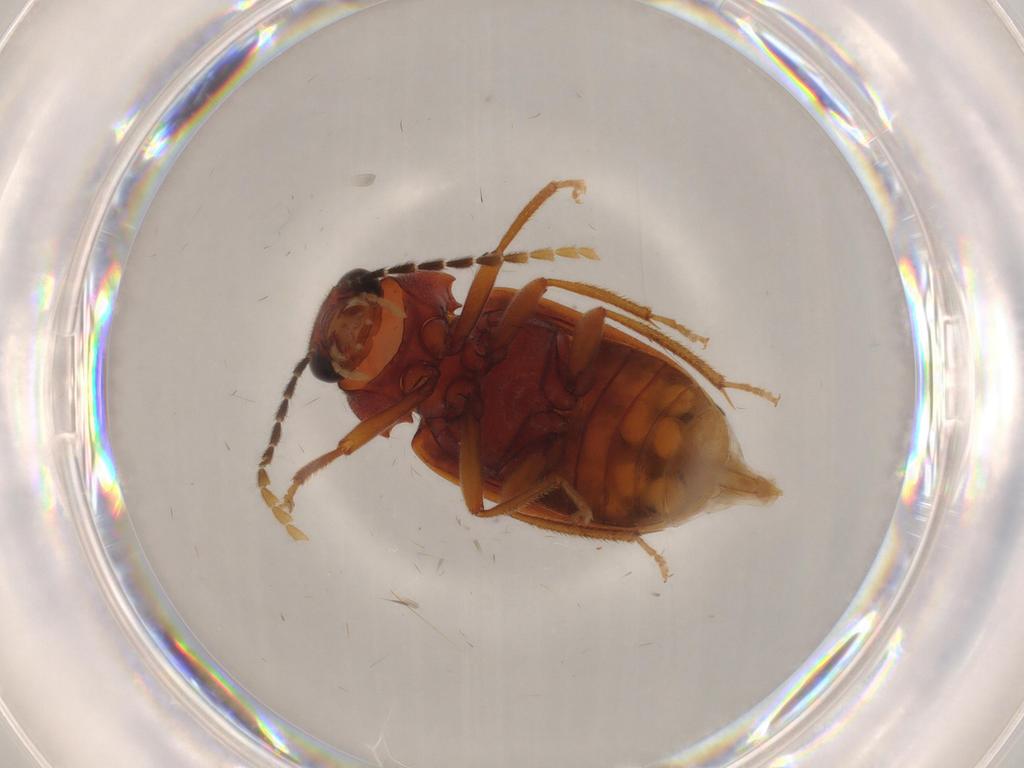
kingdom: Animalia
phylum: Arthropoda
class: Insecta
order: Coleoptera
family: Ptilodactylidae
